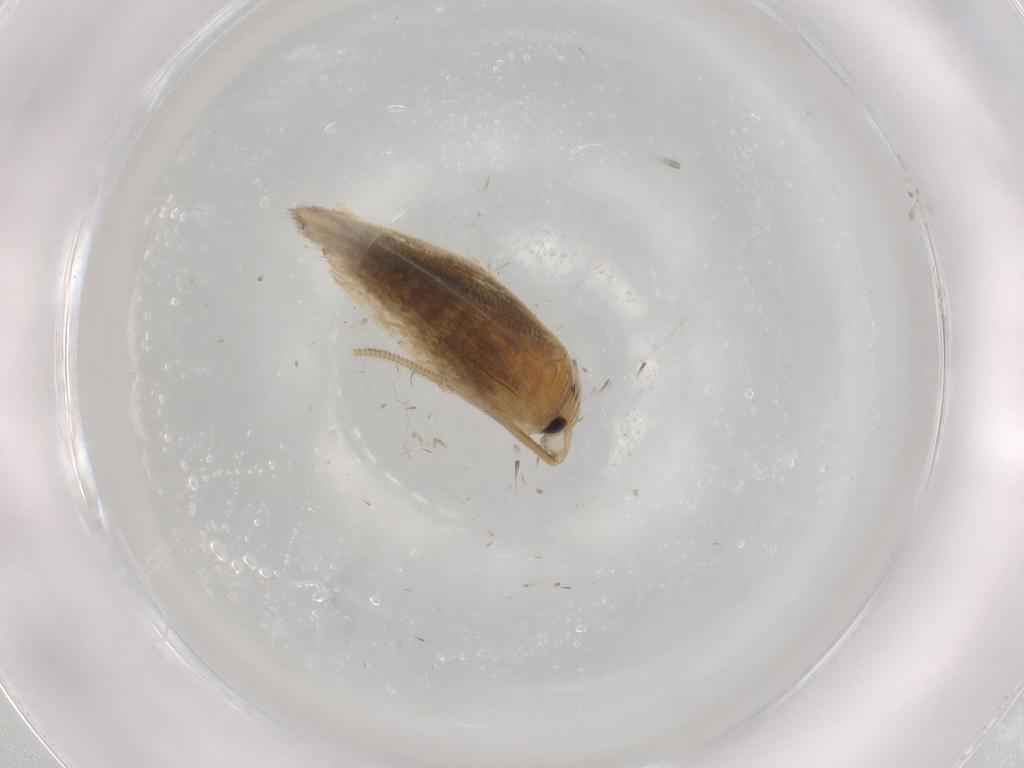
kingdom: Animalia
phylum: Arthropoda
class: Insecta
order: Lepidoptera
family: Opostegidae
